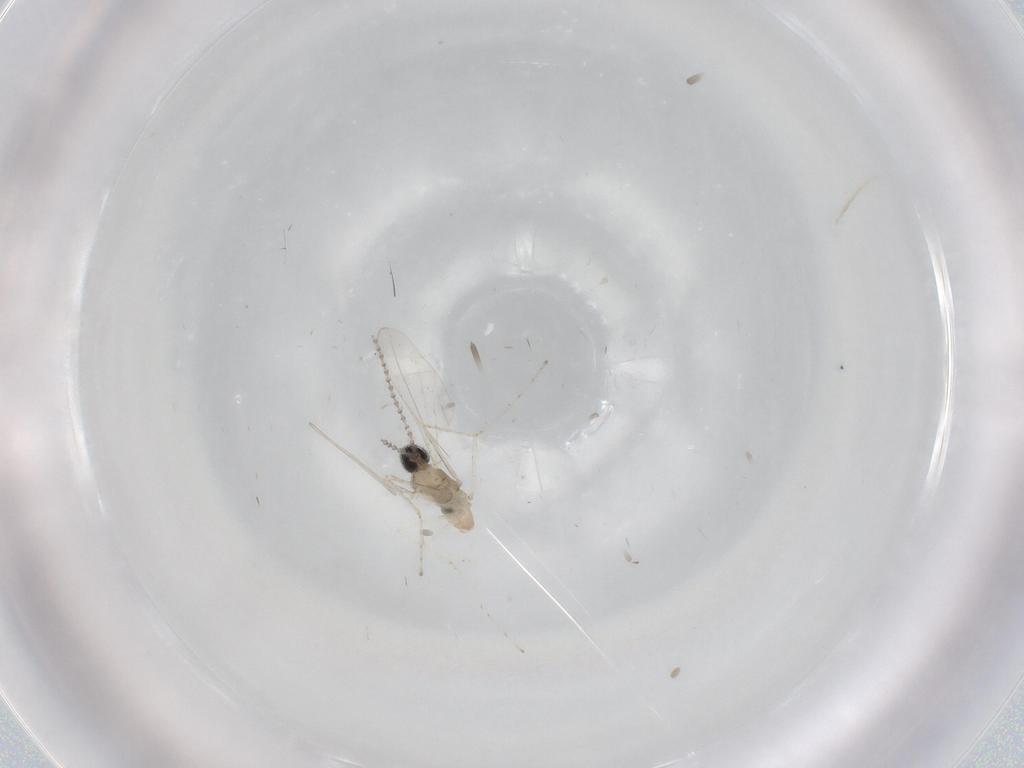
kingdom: Animalia
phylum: Arthropoda
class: Insecta
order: Diptera
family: Cecidomyiidae
